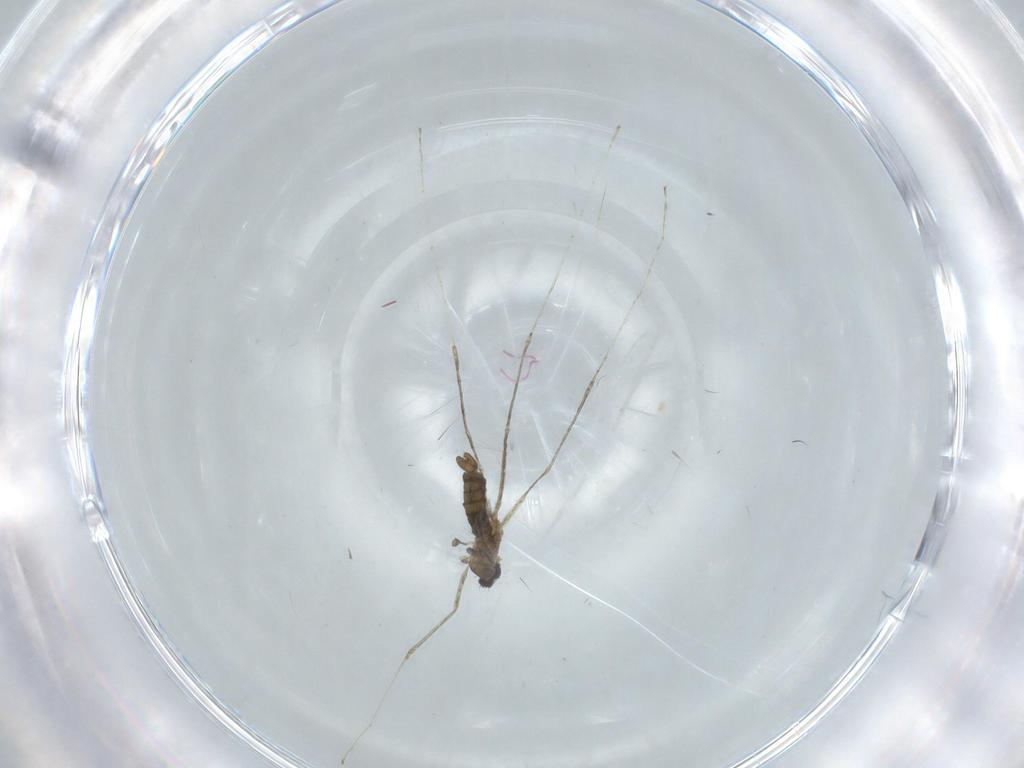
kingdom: Animalia
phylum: Arthropoda
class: Insecta
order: Diptera
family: Cecidomyiidae
